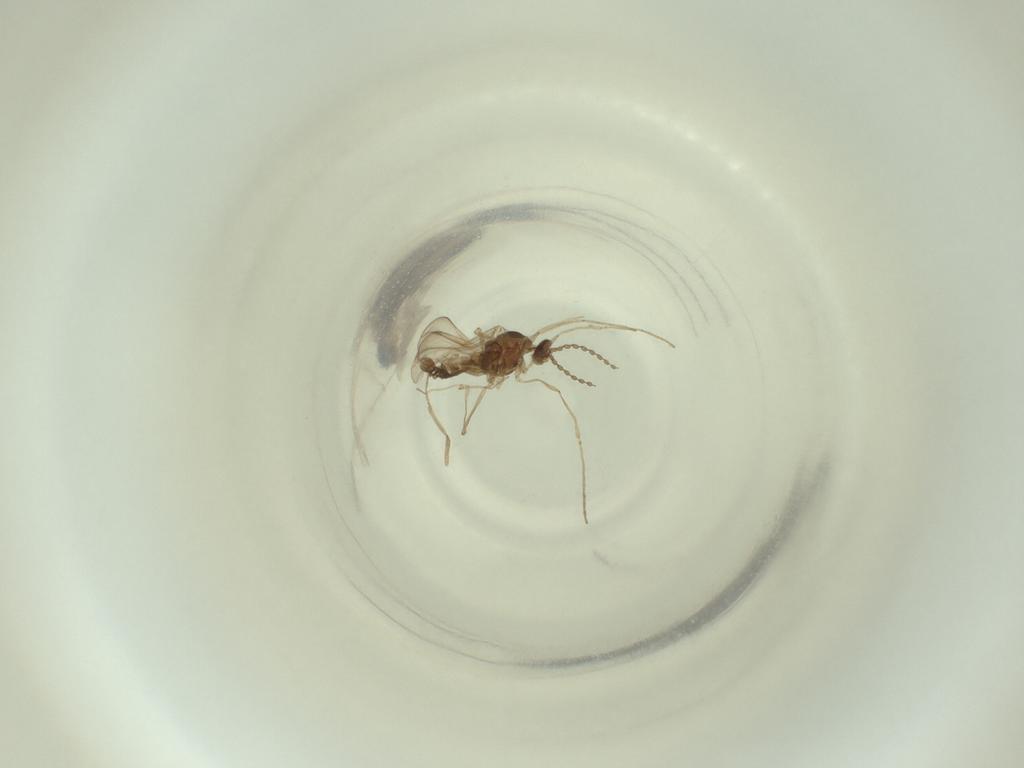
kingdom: Animalia
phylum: Arthropoda
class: Insecta
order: Diptera
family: Cecidomyiidae
